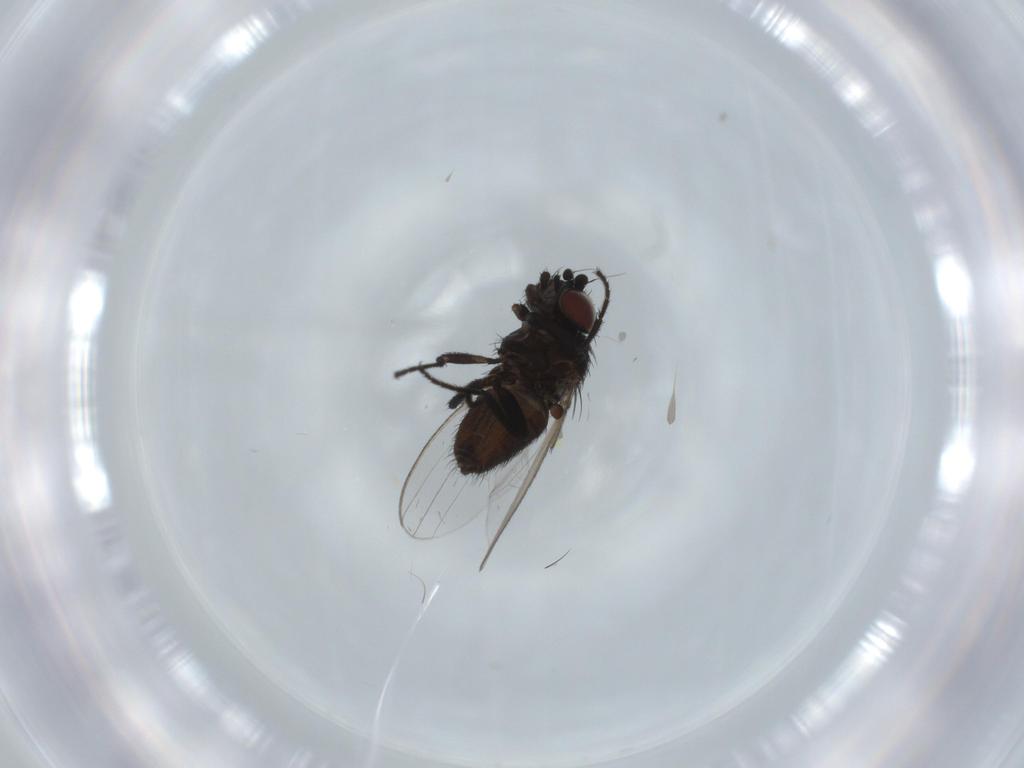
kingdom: Animalia
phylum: Arthropoda
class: Insecta
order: Diptera
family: Milichiidae
